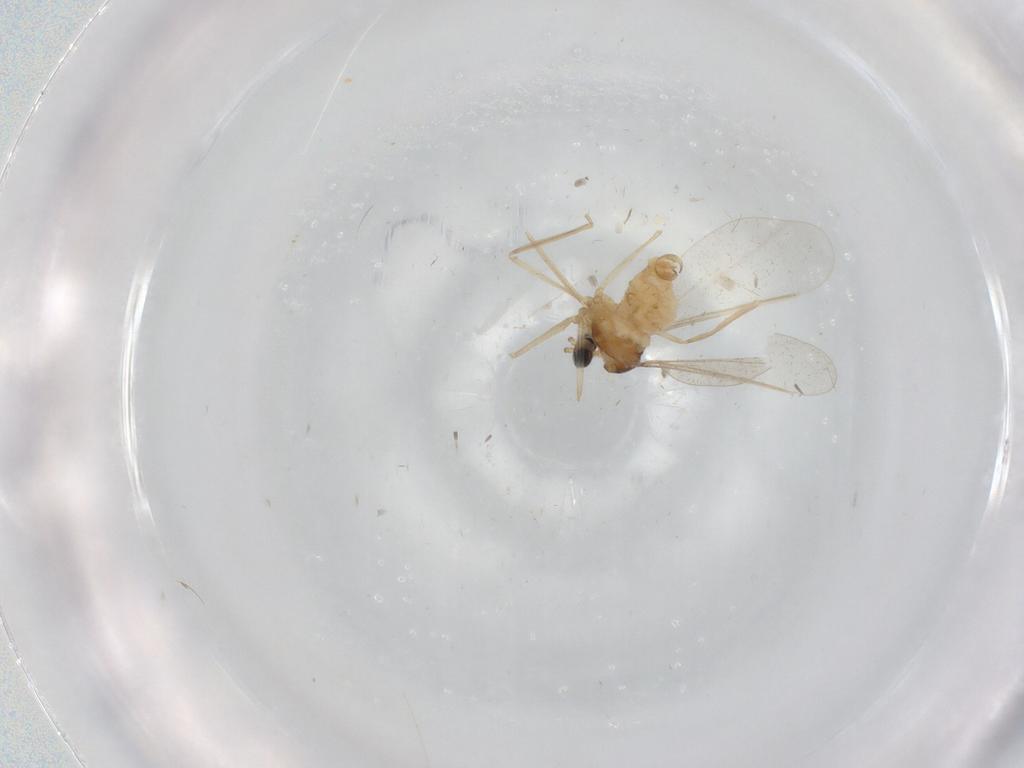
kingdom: Animalia
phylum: Arthropoda
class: Insecta
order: Diptera
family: Cecidomyiidae
